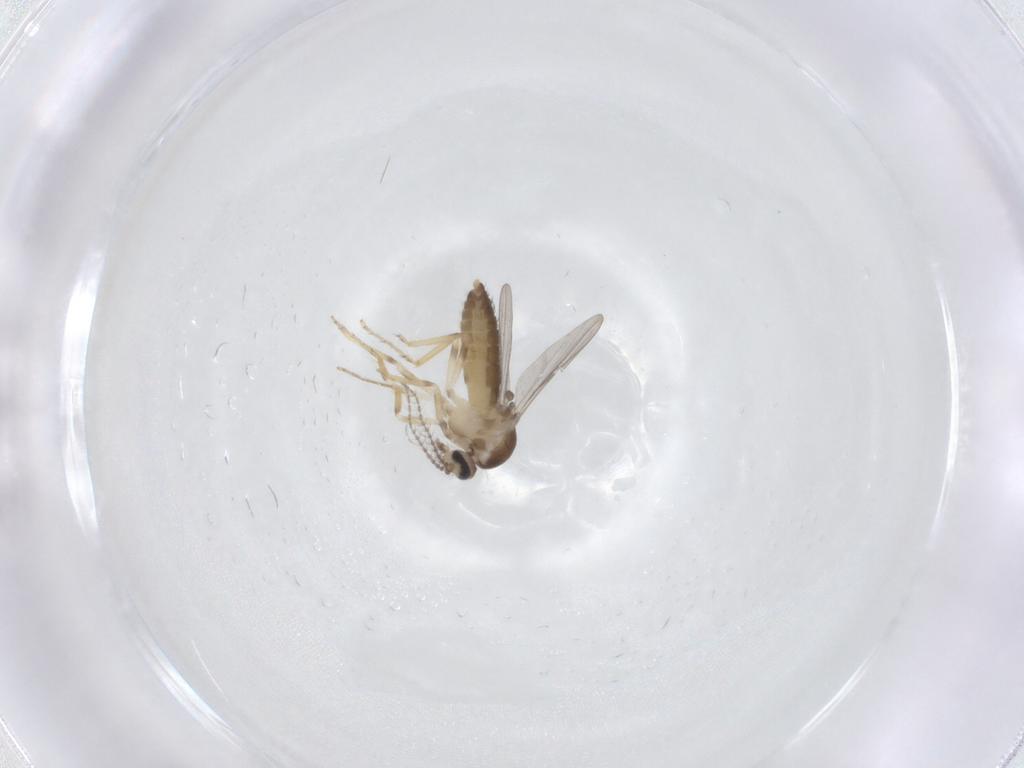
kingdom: Animalia
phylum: Arthropoda
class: Insecta
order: Diptera
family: Ceratopogonidae
